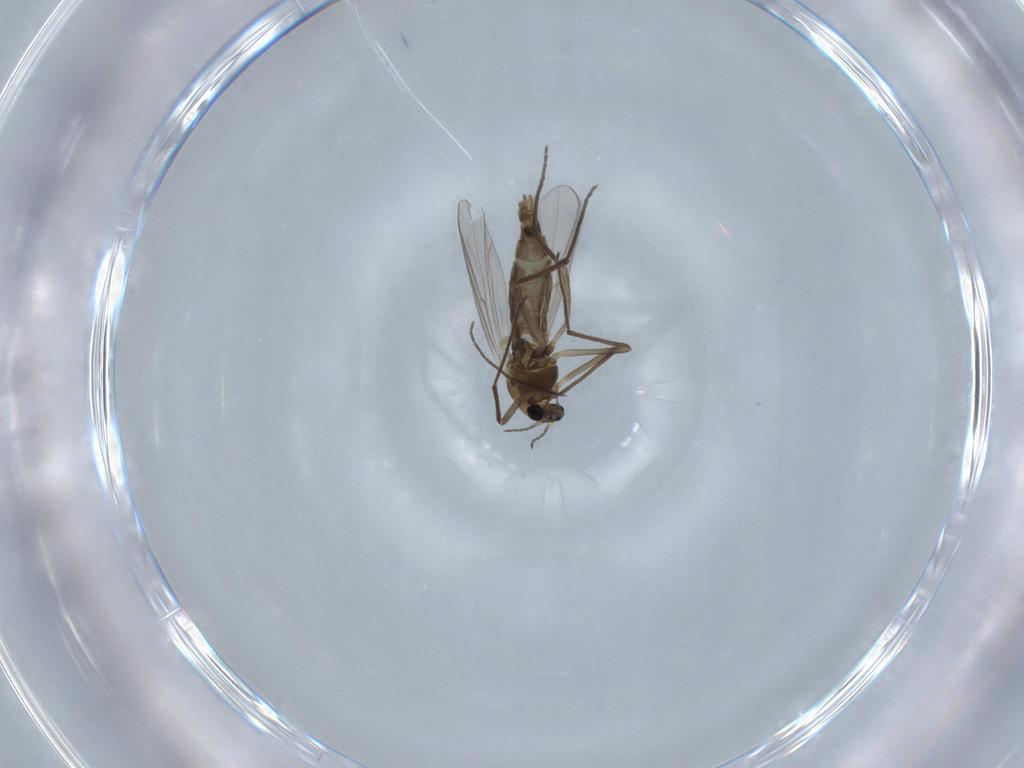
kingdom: Animalia
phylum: Arthropoda
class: Insecta
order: Diptera
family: Chironomidae
